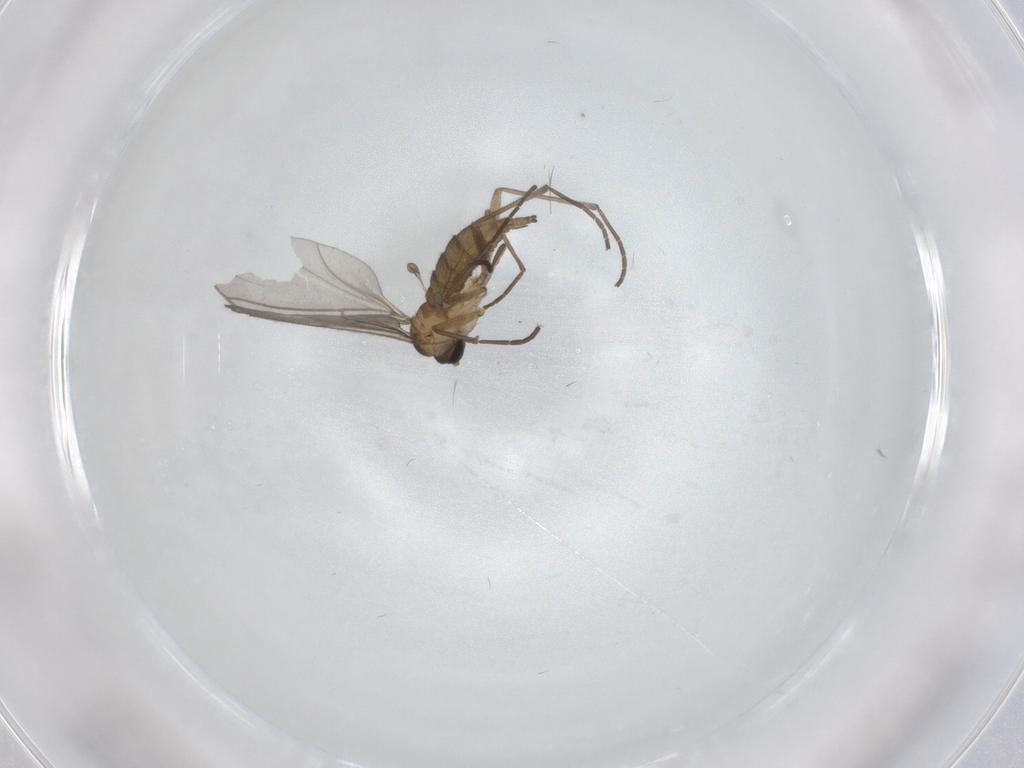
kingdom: Animalia
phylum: Arthropoda
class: Insecta
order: Diptera
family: Sciaridae
